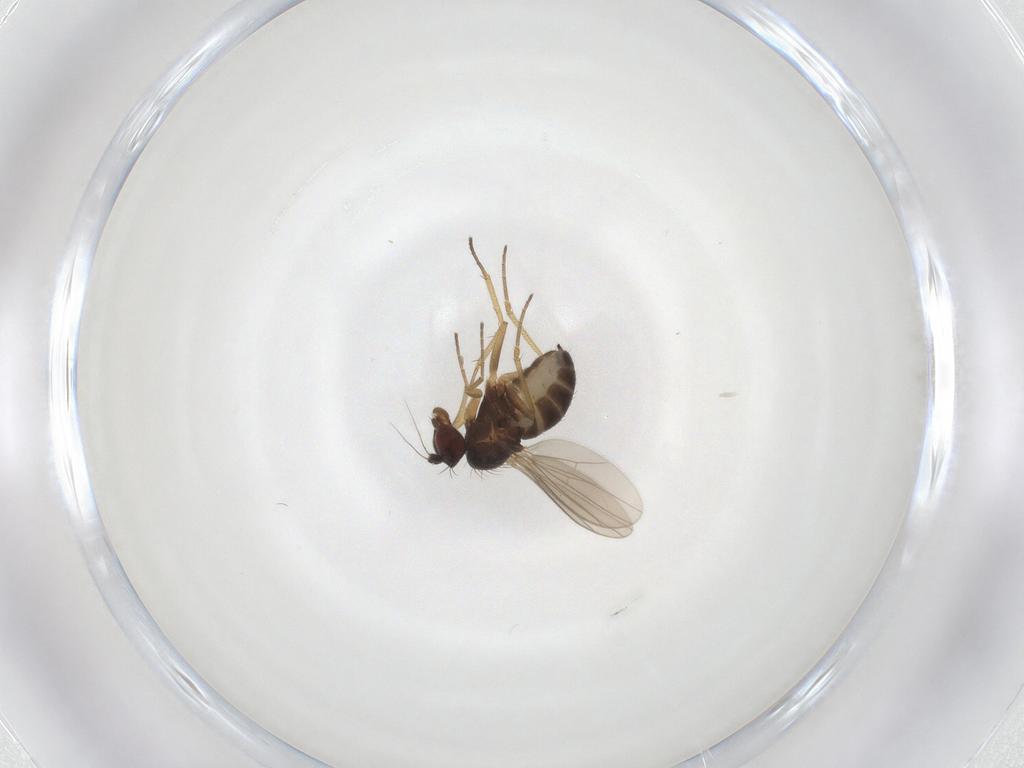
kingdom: Animalia
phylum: Arthropoda
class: Insecta
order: Diptera
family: Dolichopodidae
